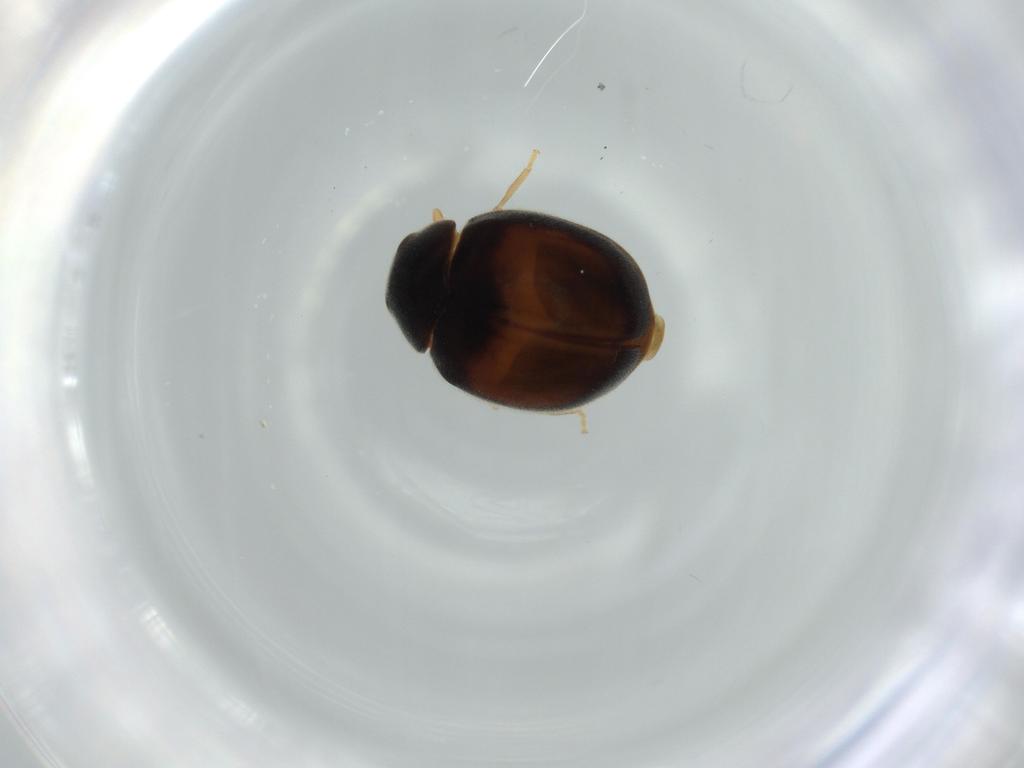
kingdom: Animalia
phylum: Arthropoda
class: Insecta
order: Coleoptera
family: Coccinellidae
